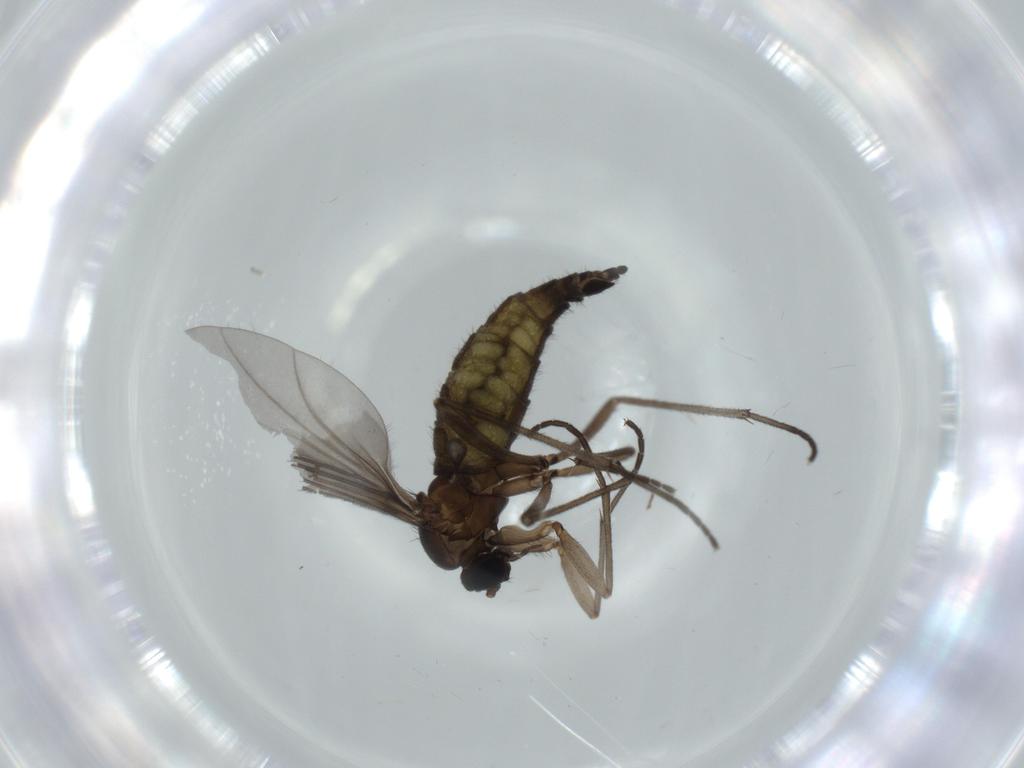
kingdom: Animalia
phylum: Arthropoda
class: Insecta
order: Diptera
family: Sciaridae
